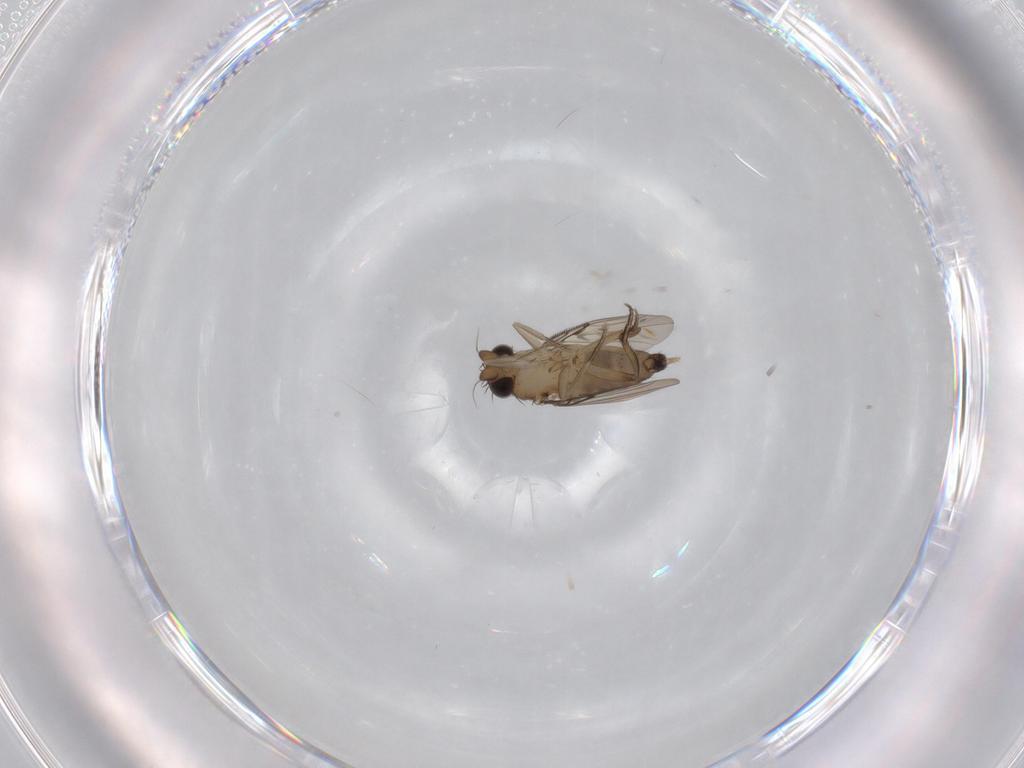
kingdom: Animalia
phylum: Arthropoda
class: Insecta
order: Diptera
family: Phoridae
